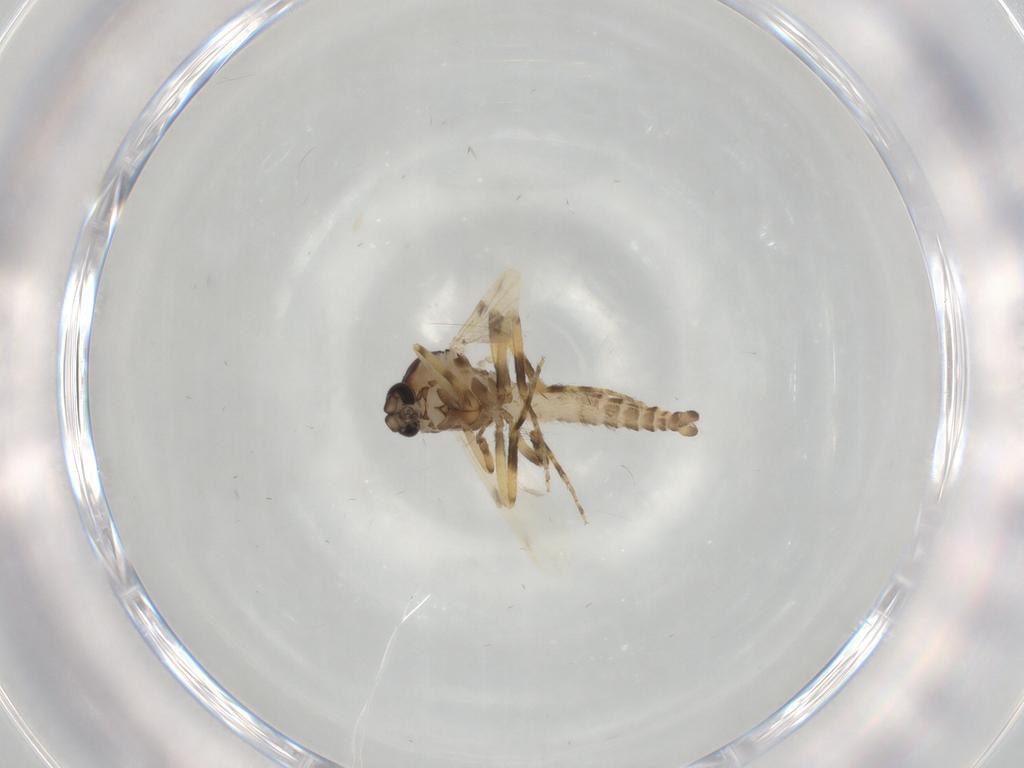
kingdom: Animalia
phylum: Arthropoda
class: Insecta
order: Diptera
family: Ceratopogonidae
